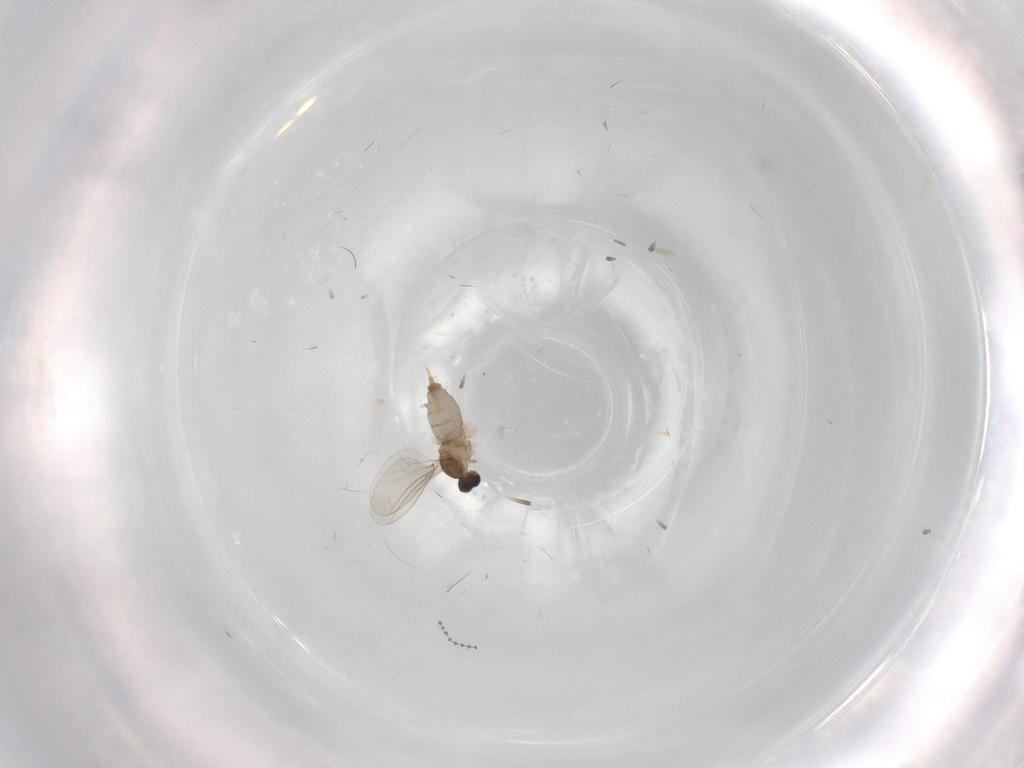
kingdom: Animalia
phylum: Arthropoda
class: Insecta
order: Diptera
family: Cecidomyiidae
